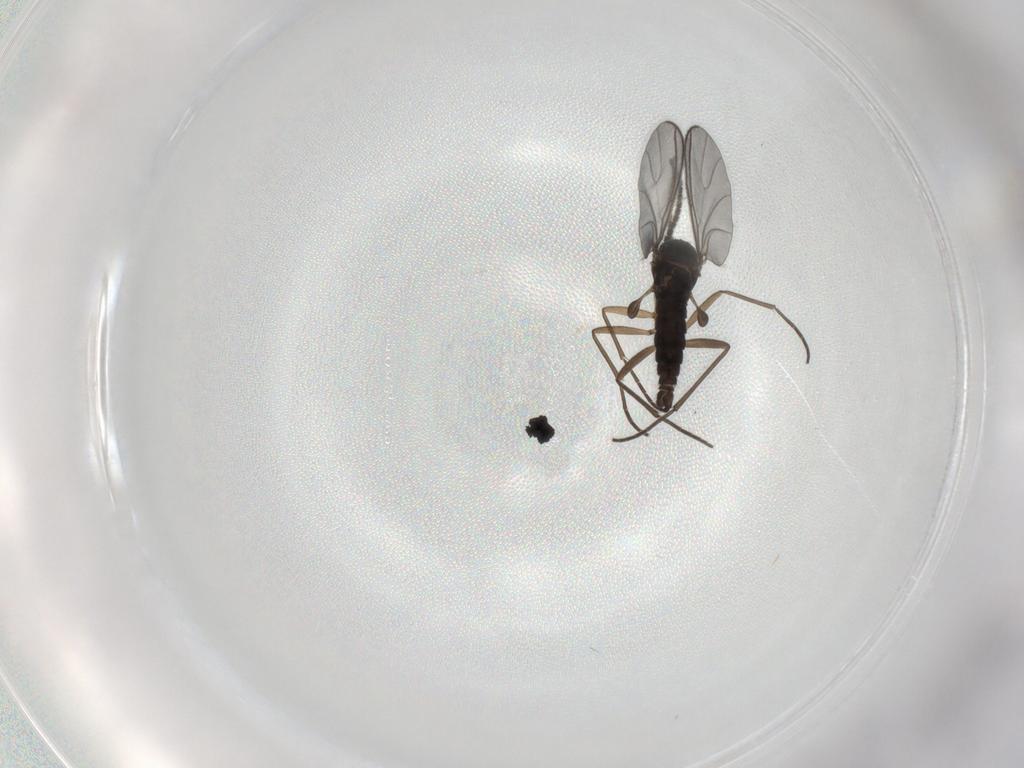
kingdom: Animalia
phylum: Arthropoda
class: Insecta
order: Diptera
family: Sciaridae
